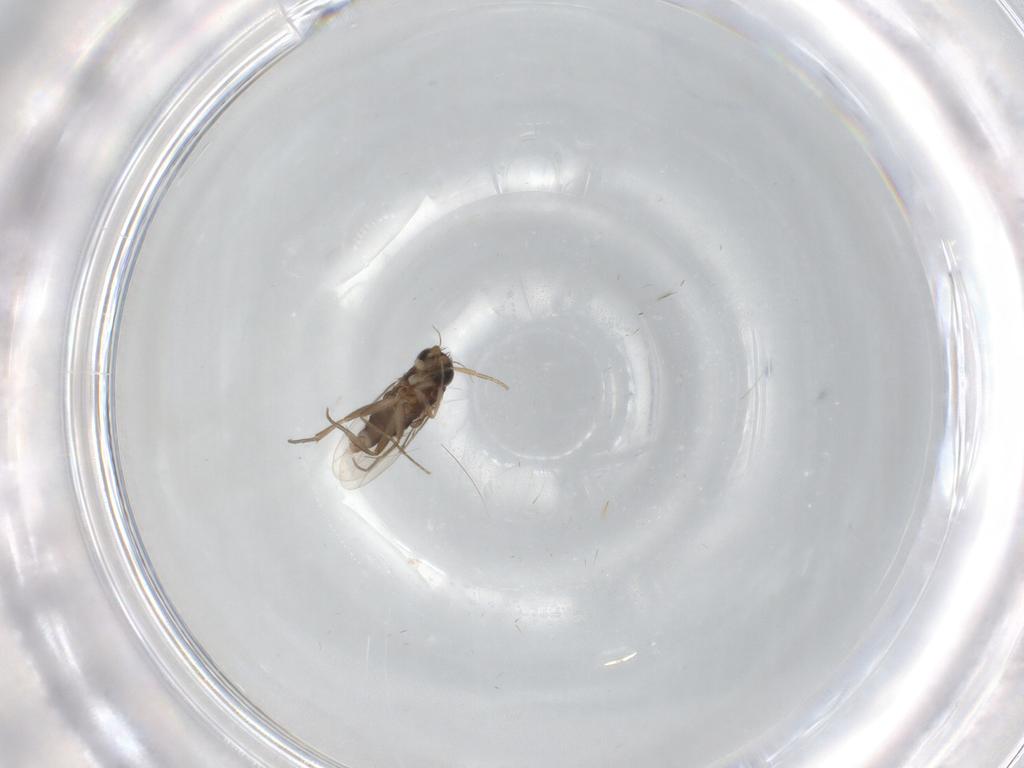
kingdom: Animalia
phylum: Arthropoda
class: Insecta
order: Diptera
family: Phoridae
